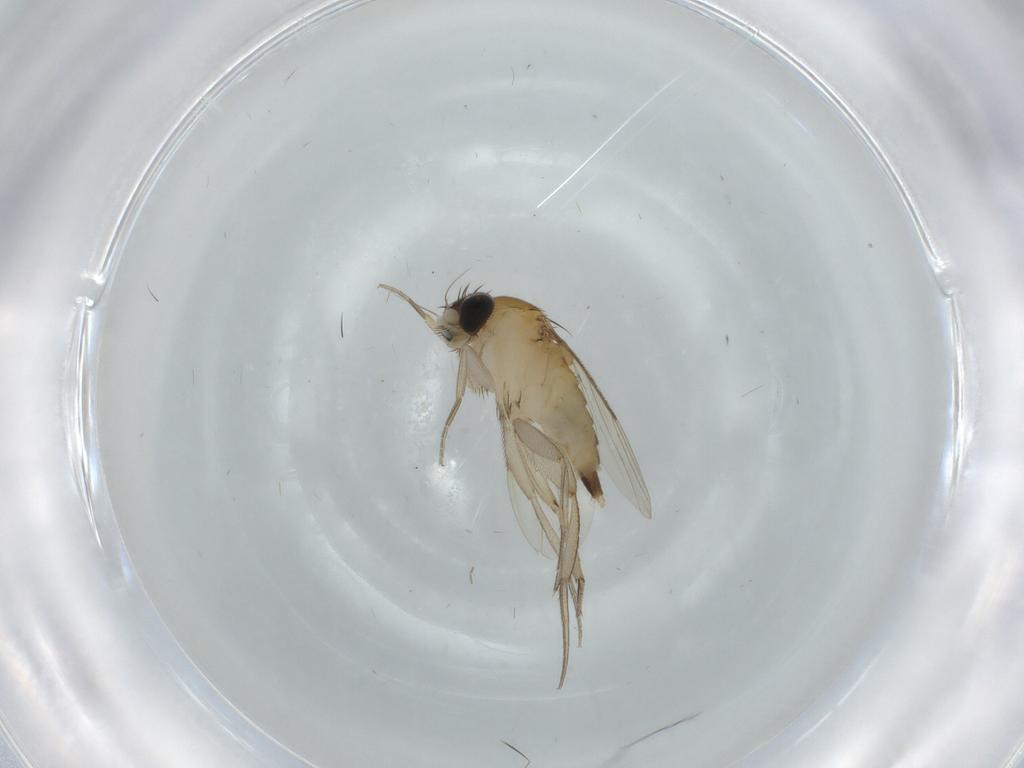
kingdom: Animalia
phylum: Arthropoda
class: Insecta
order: Diptera
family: Phoridae
